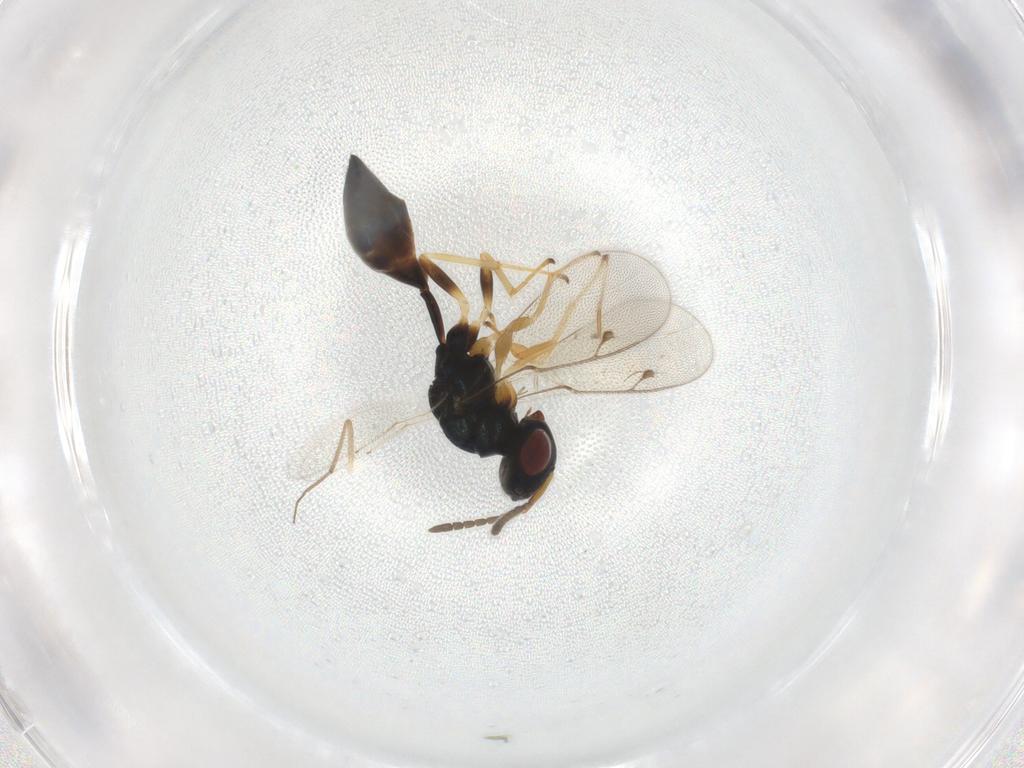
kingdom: Animalia
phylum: Arthropoda
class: Insecta
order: Hymenoptera
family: Pteromalidae
